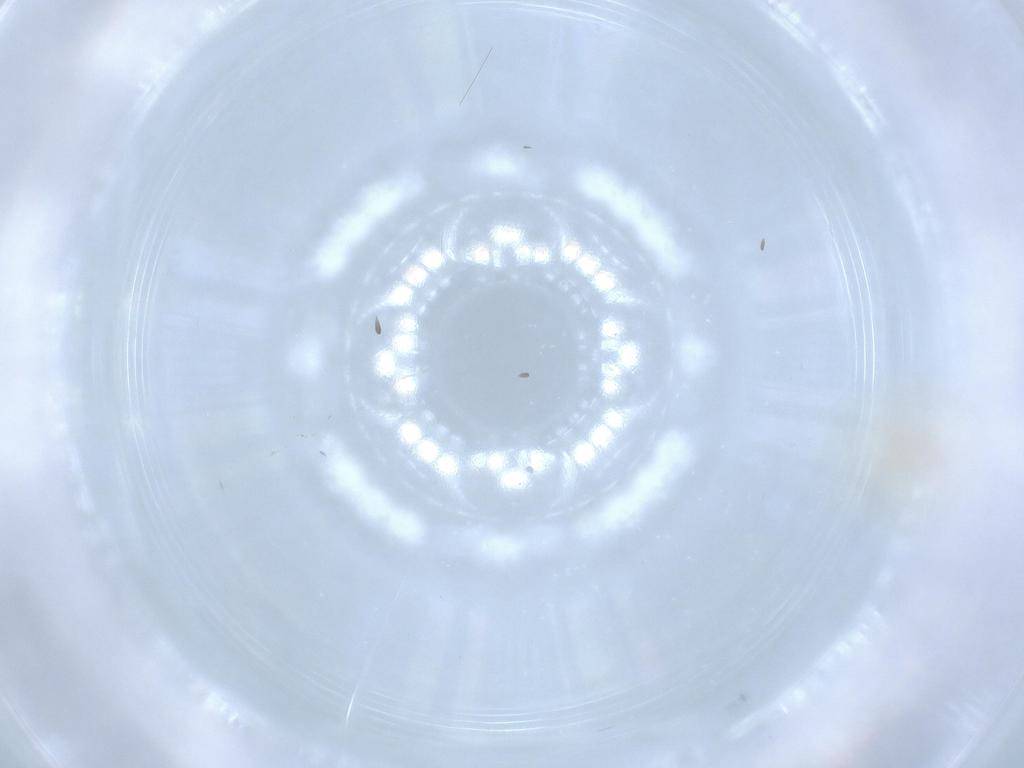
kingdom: Animalia
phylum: Arthropoda
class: Insecta
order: Hemiptera
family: Acanaloniidae
